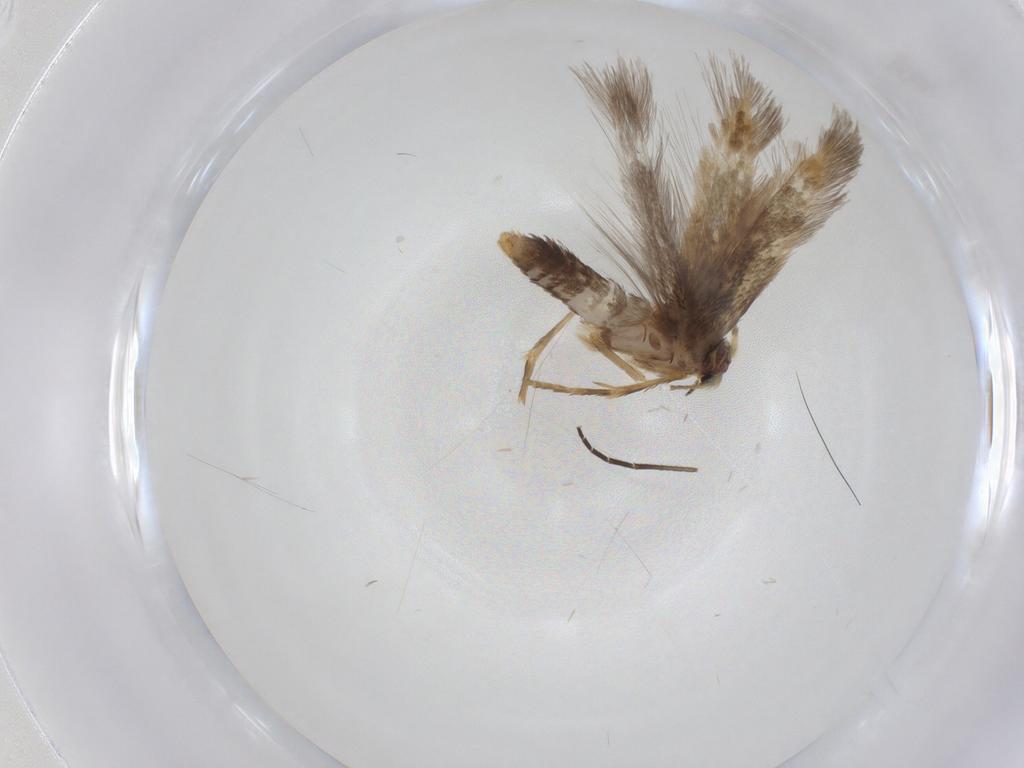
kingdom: Animalia
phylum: Arthropoda
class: Insecta
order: Lepidoptera
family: Nepticulidae
